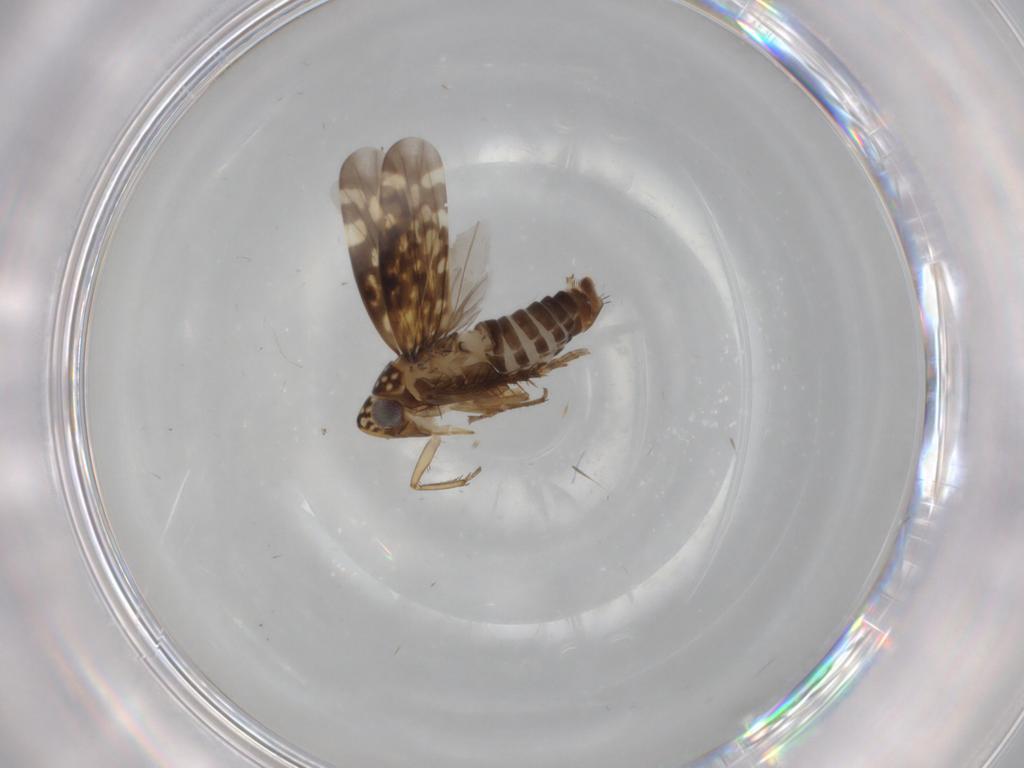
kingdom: Animalia
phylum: Arthropoda
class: Insecta
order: Hemiptera
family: Cicadellidae
